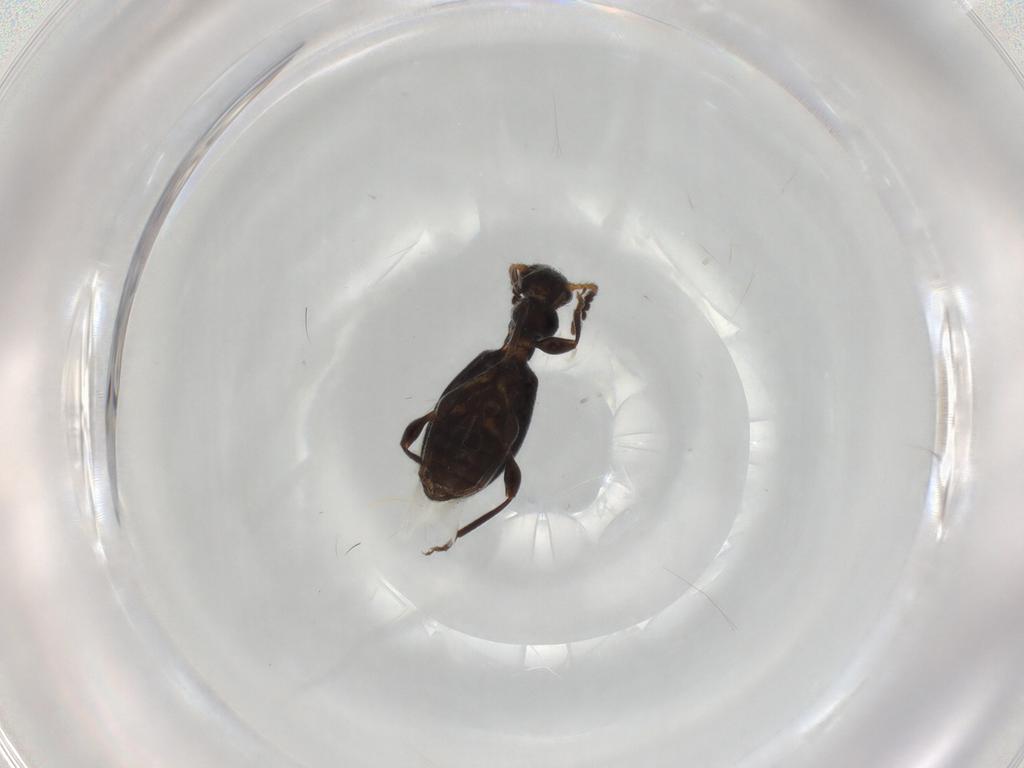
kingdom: Animalia
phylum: Arthropoda
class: Insecta
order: Coleoptera
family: Anthicidae
